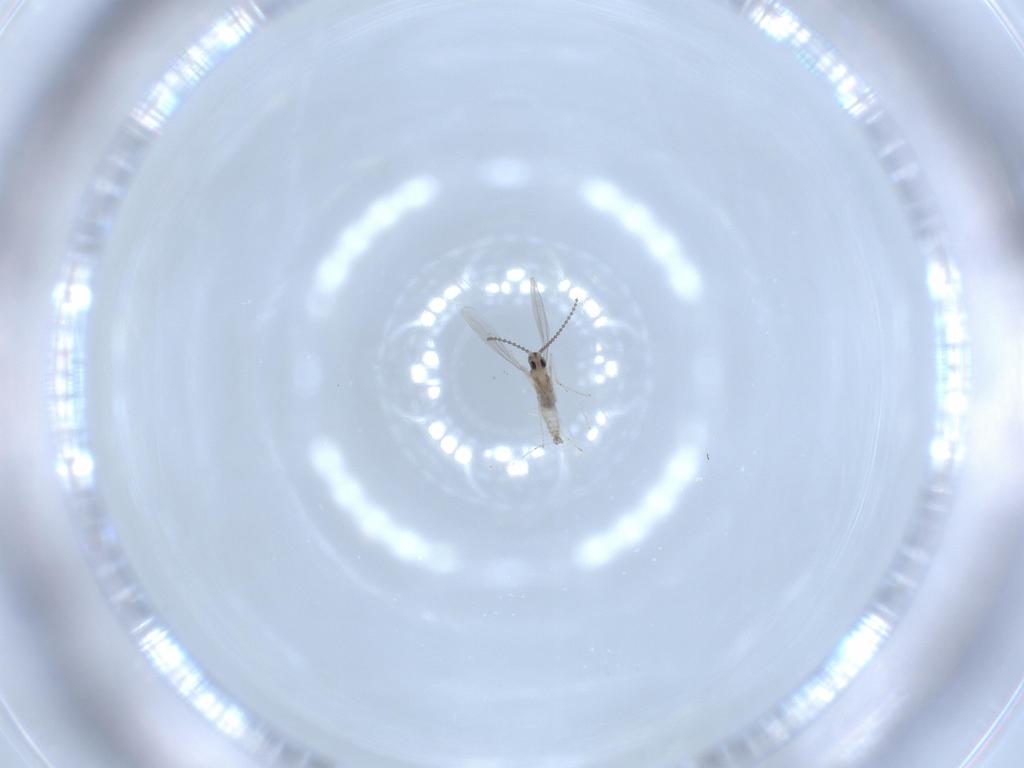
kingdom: Animalia
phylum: Arthropoda
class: Insecta
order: Diptera
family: Cecidomyiidae
